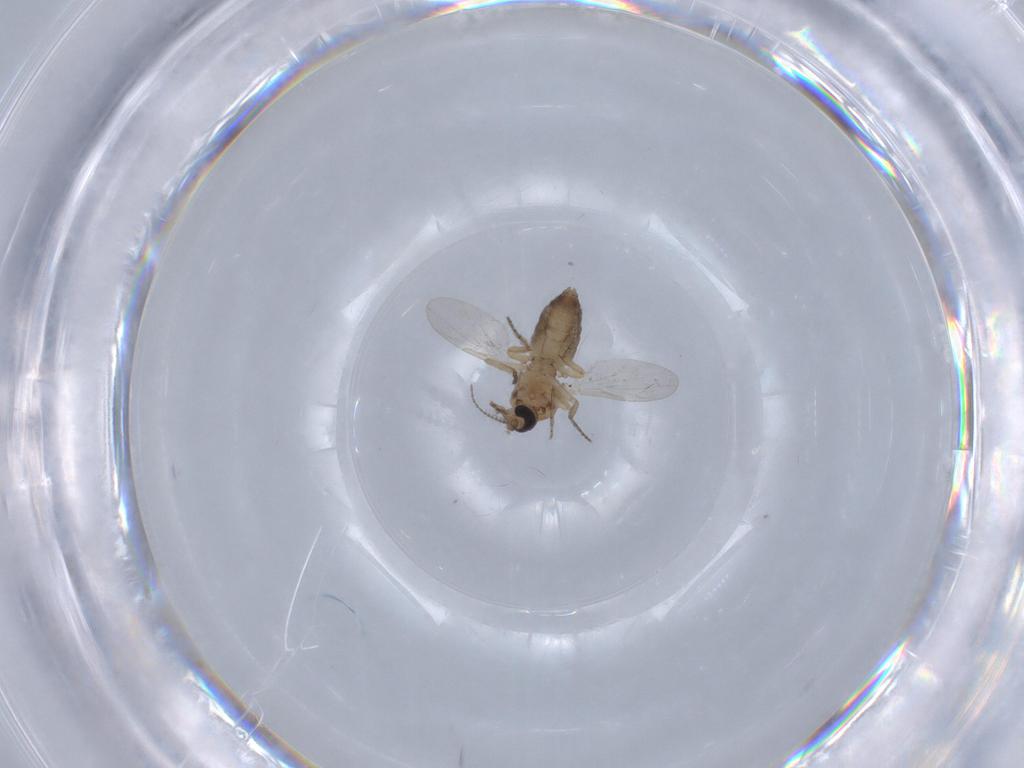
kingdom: Animalia
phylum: Arthropoda
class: Insecta
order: Diptera
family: Ceratopogonidae
